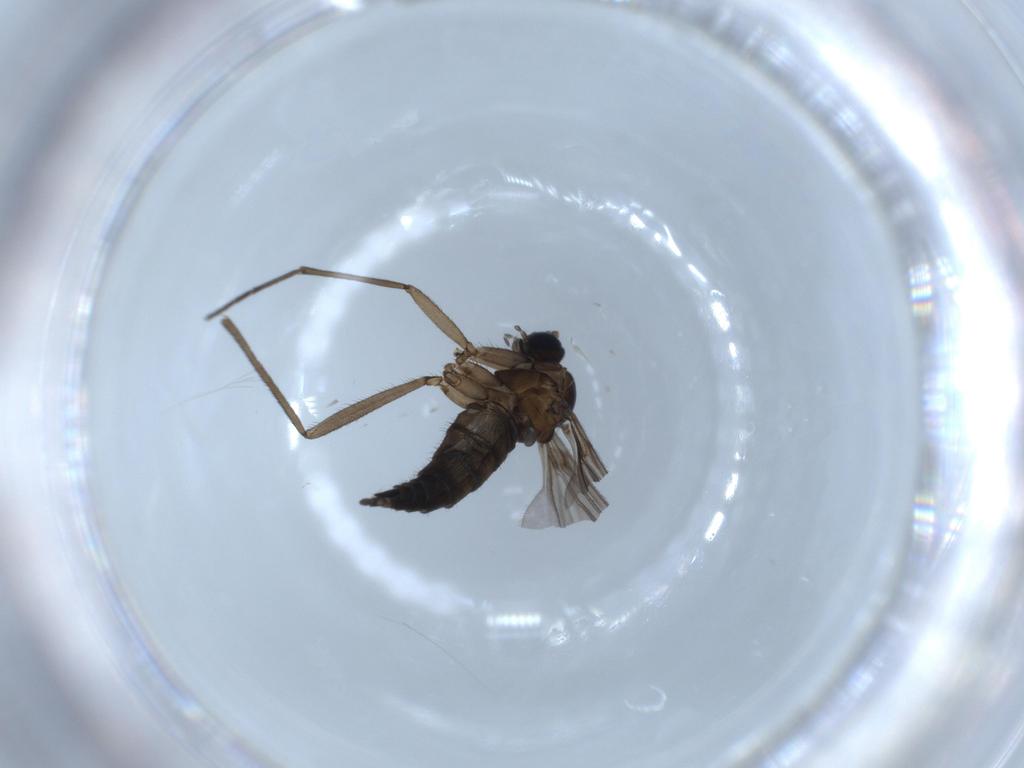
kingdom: Animalia
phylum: Arthropoda
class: Insecta
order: Diptera
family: Sciaridae
